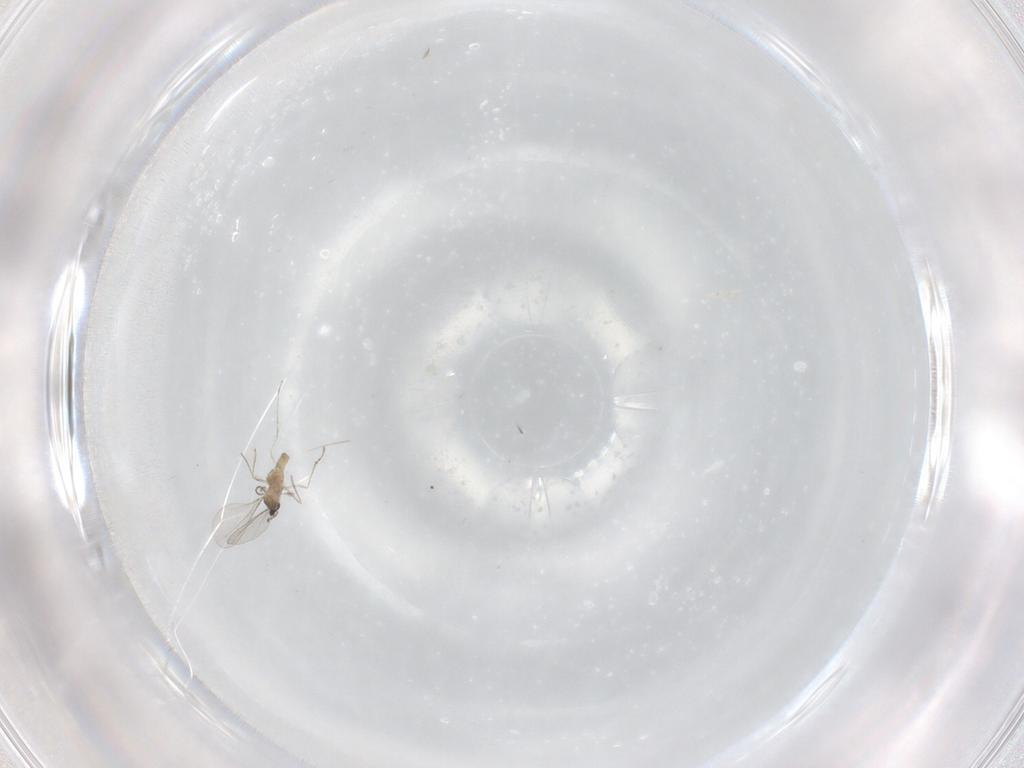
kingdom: Animalia
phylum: Arthropoda
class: Insecta
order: Diptera
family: Cecidomyiidae
